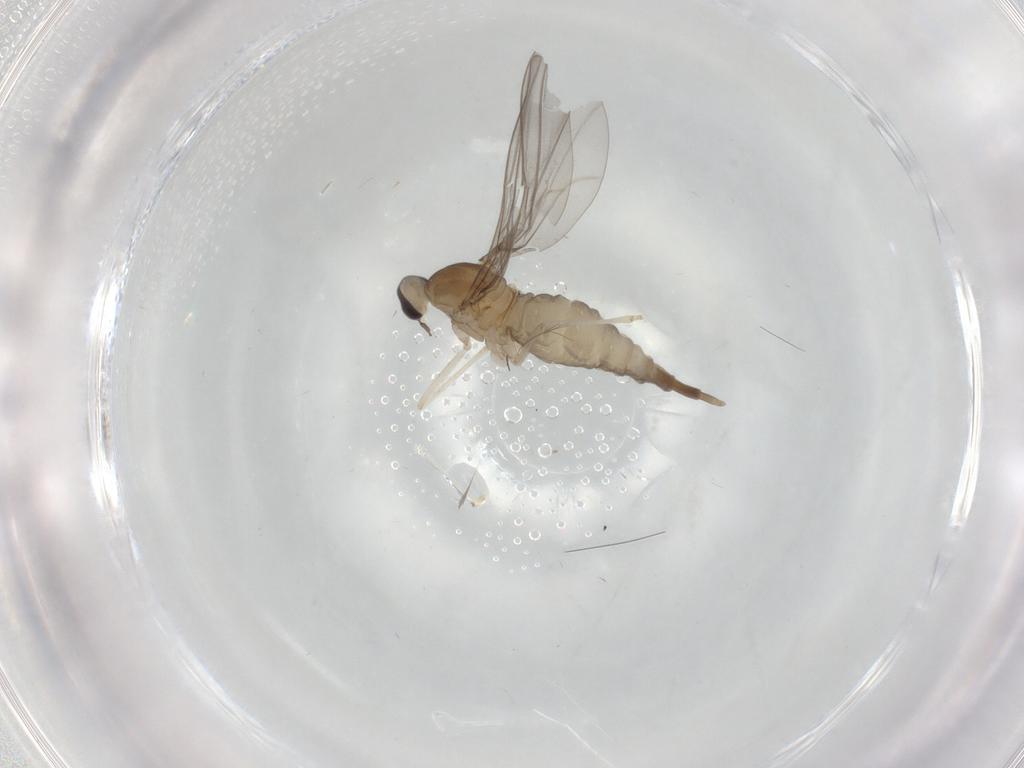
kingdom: Animalia
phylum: Arthropoda
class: Insecta
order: Diptera
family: Cecidomyiidae
